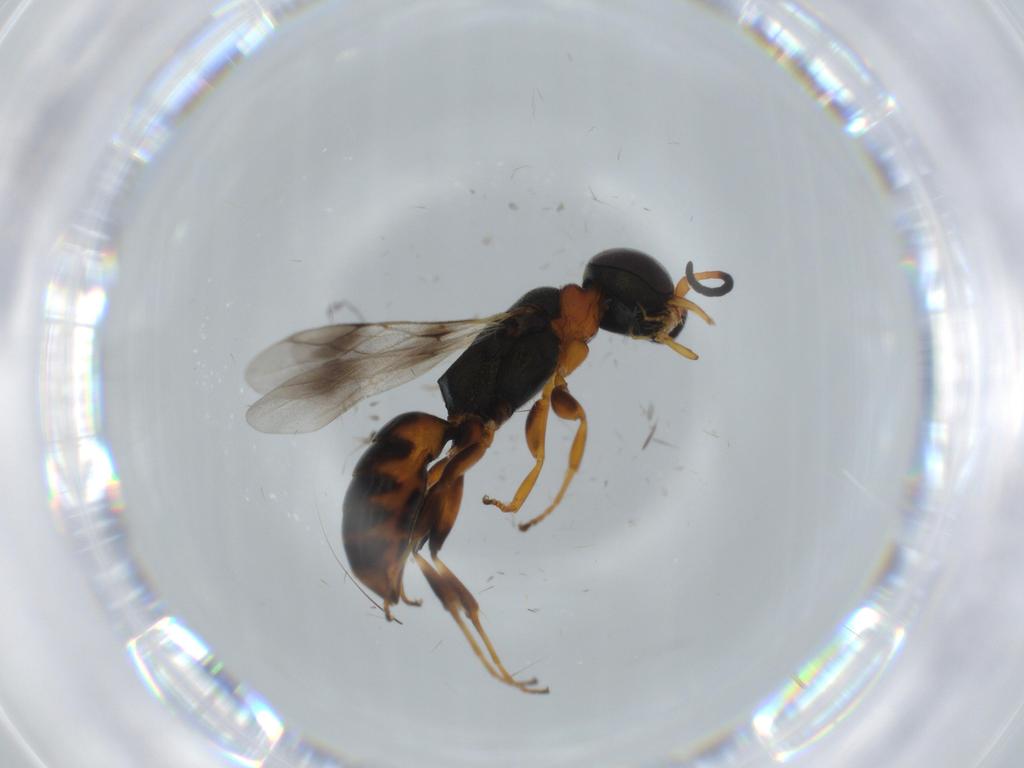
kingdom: Animalia
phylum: Arthropoda
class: Insecta
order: Hymenoptera
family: Crabronidae
